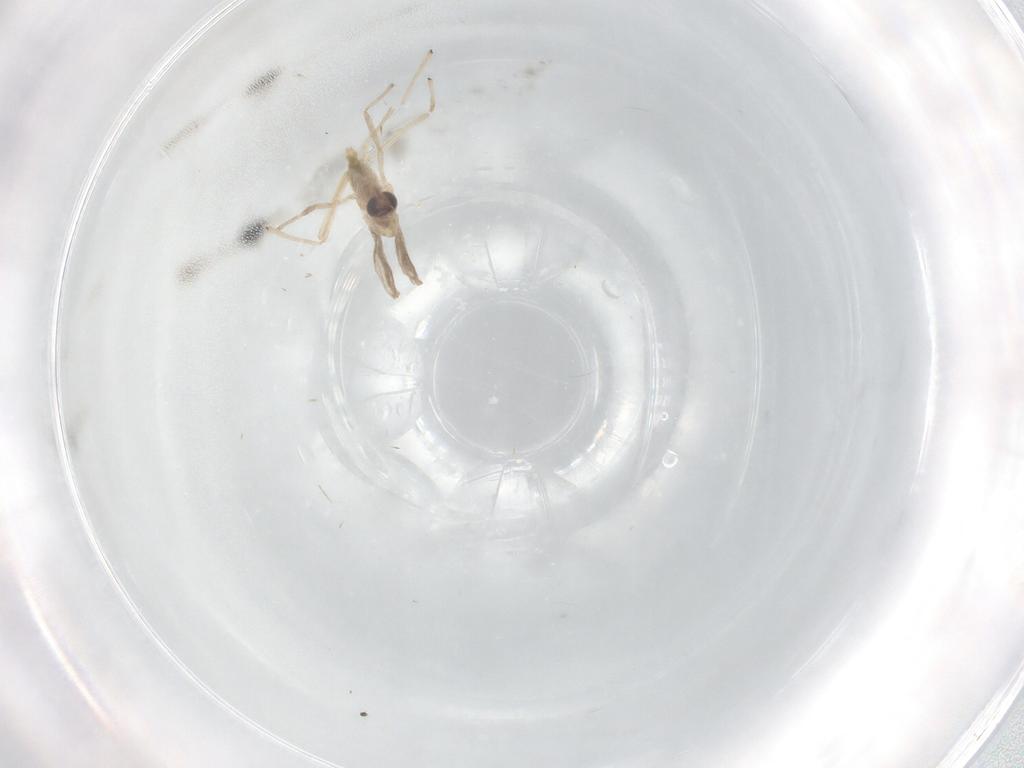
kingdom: Animalia
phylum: Arthropoda
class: Insecta
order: Diptera
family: Chironomidae
